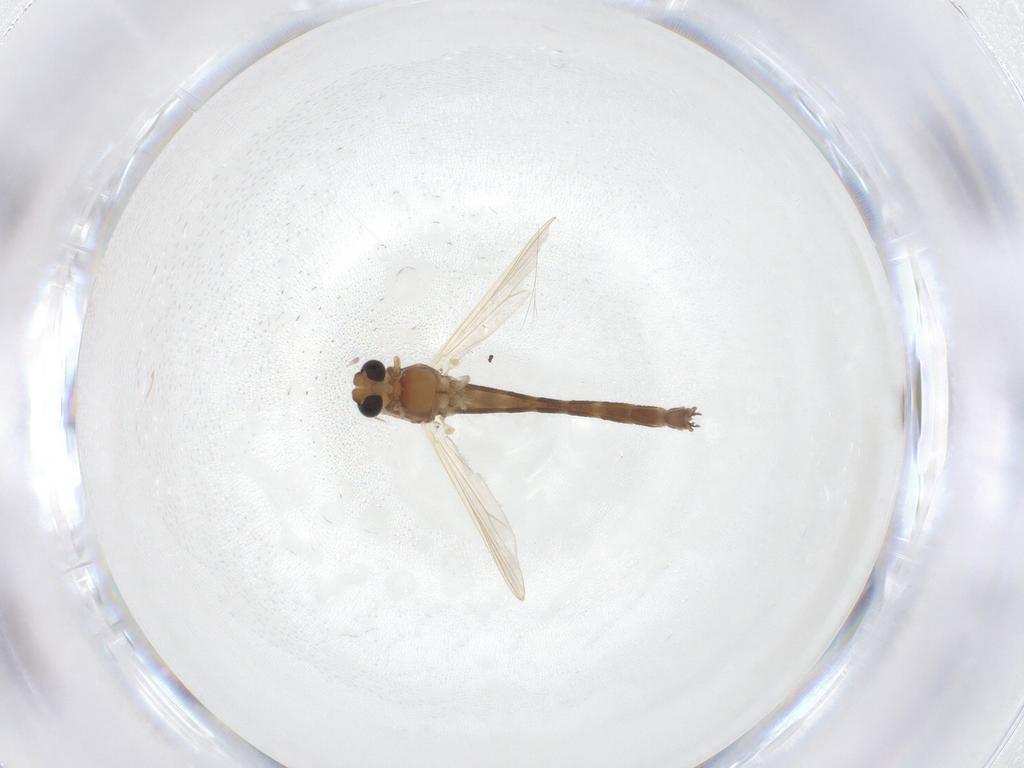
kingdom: Animalia
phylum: Arthropoda
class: Insecta
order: Diptera
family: Chironomidae
